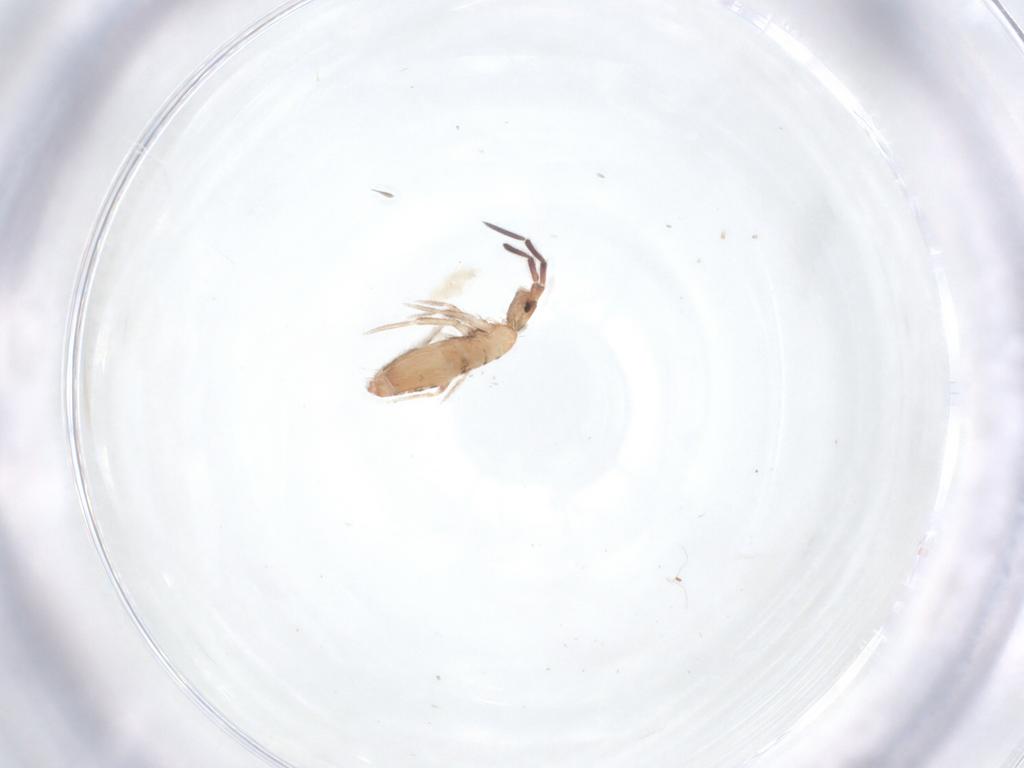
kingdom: Animalia
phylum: Arthropoda
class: Collembola
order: Entomobryomorpha
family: Entomobryidae
